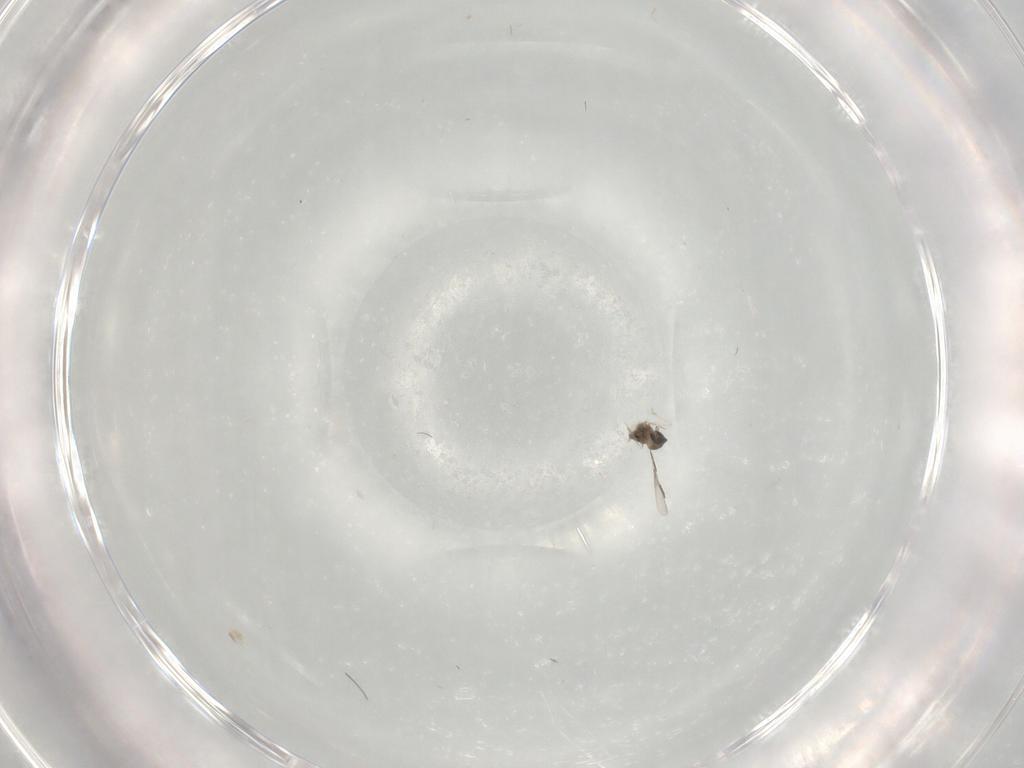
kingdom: Animalia
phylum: Arthropoda
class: Insecta
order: Diptera
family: Cecidomyiidae
